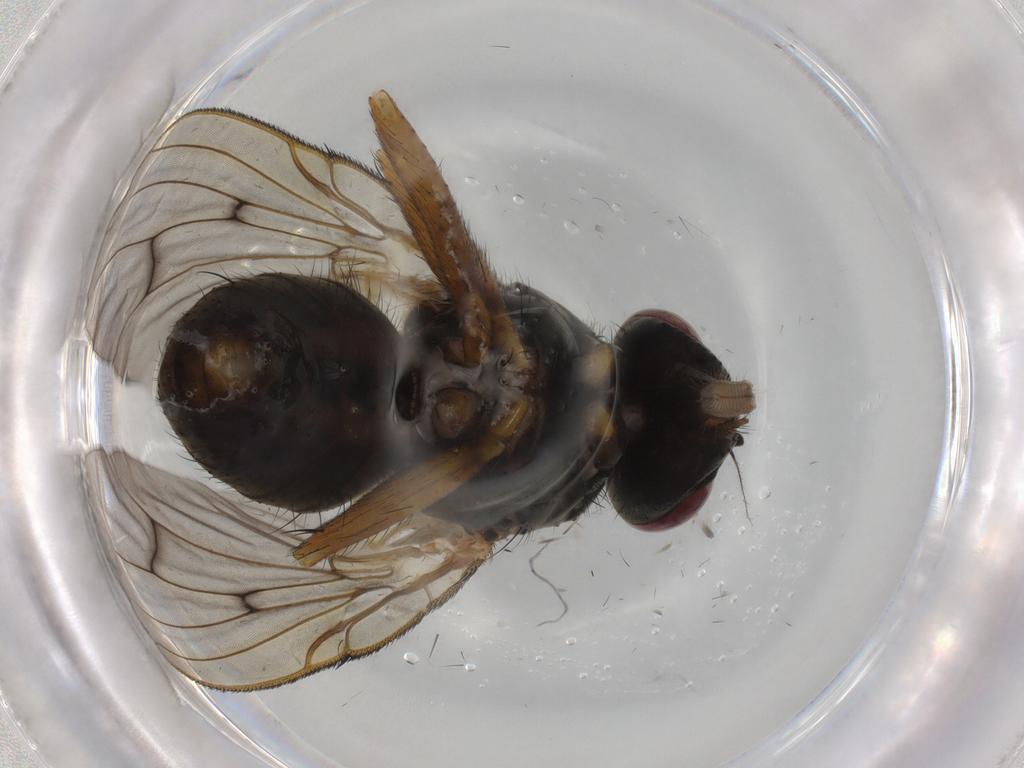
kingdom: Animalia
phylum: Arthropoda
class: Insecta
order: Diptera
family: Muscidae
